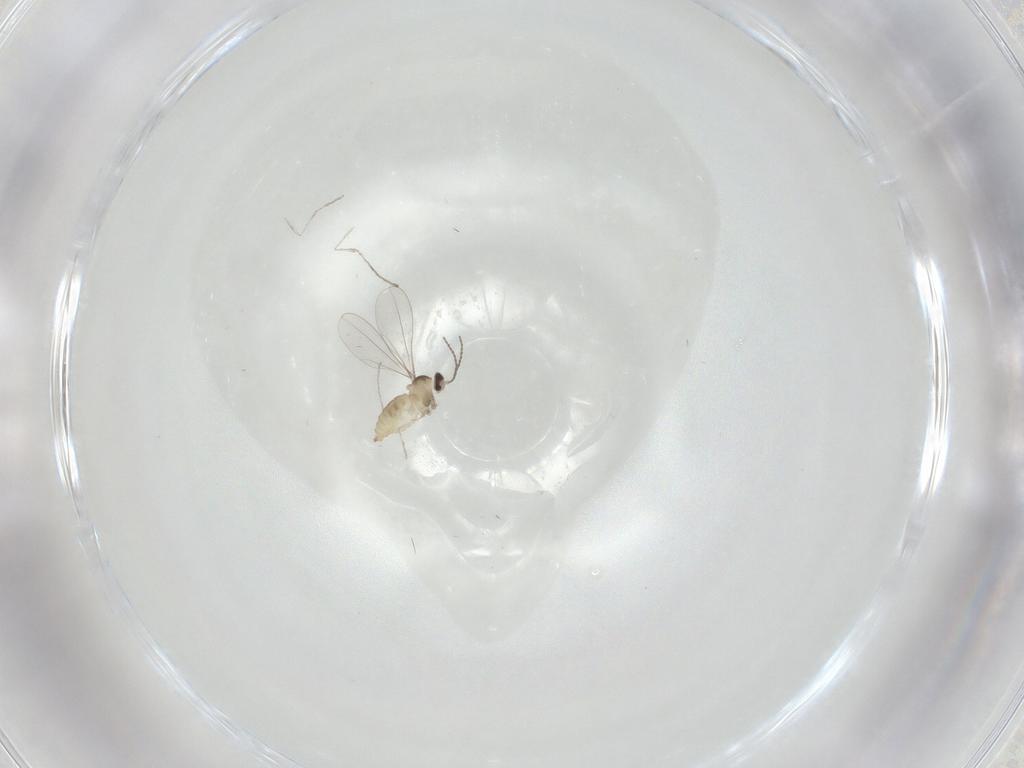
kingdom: Animalia
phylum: Arthropoda
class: Insecta
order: Diptera
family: Cecidomyiidae
